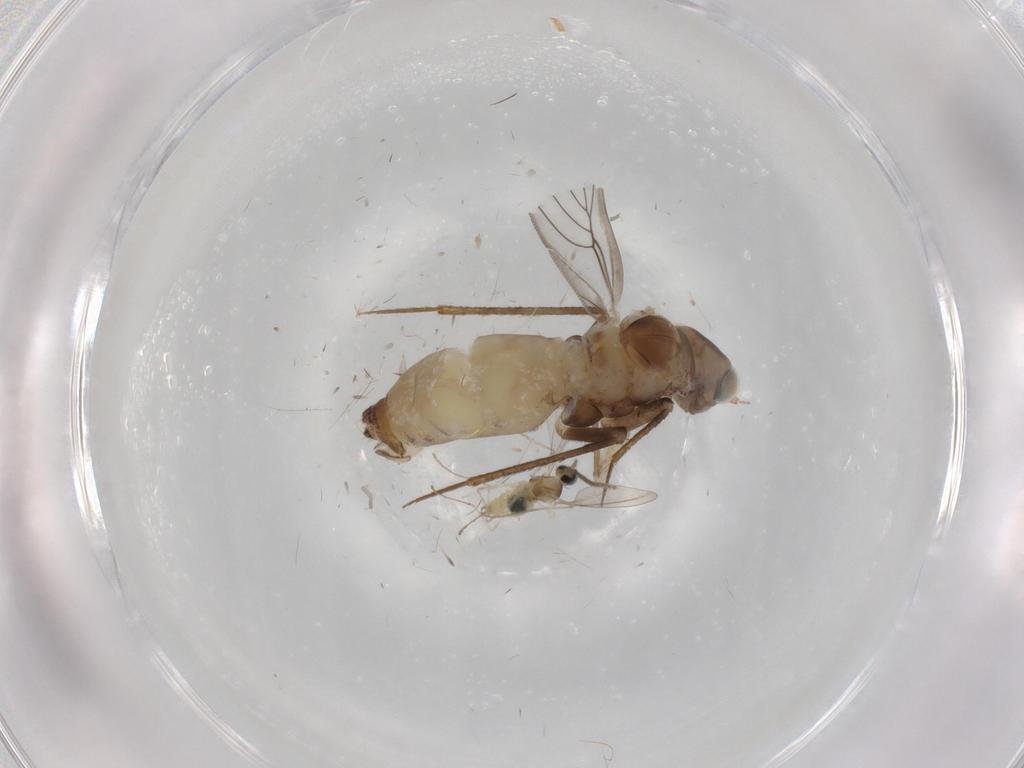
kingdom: Animalia
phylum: Arthropoda
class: Insecta
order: Psocodea
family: Lepidopsocidae
